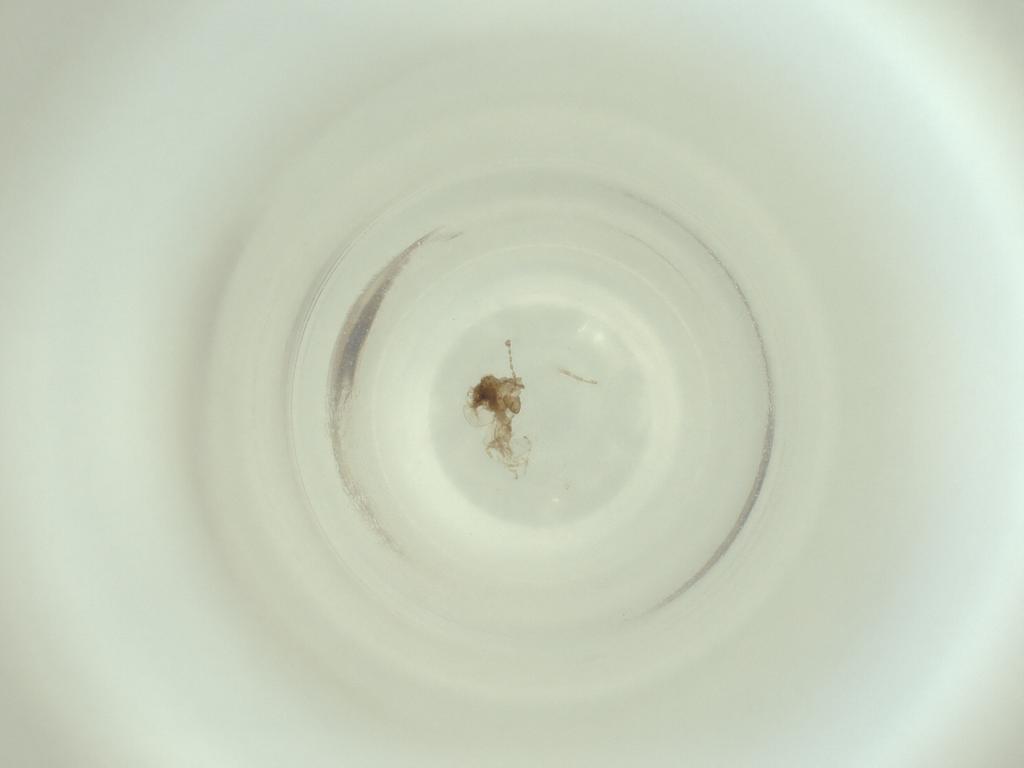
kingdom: Animalia
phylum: Arthropoda
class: Insecta
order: Diptera
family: Cecidomyiidae
